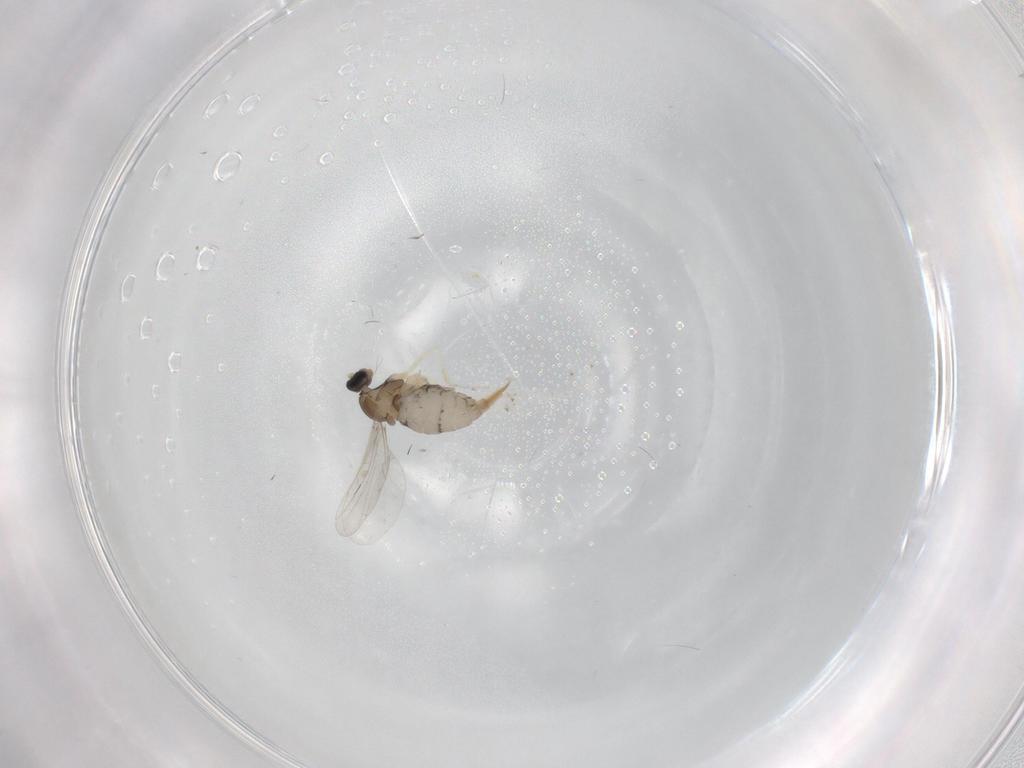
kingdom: Animalia
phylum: Arthropoda
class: Insecta
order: Diptera
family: Cecidomyiidae
